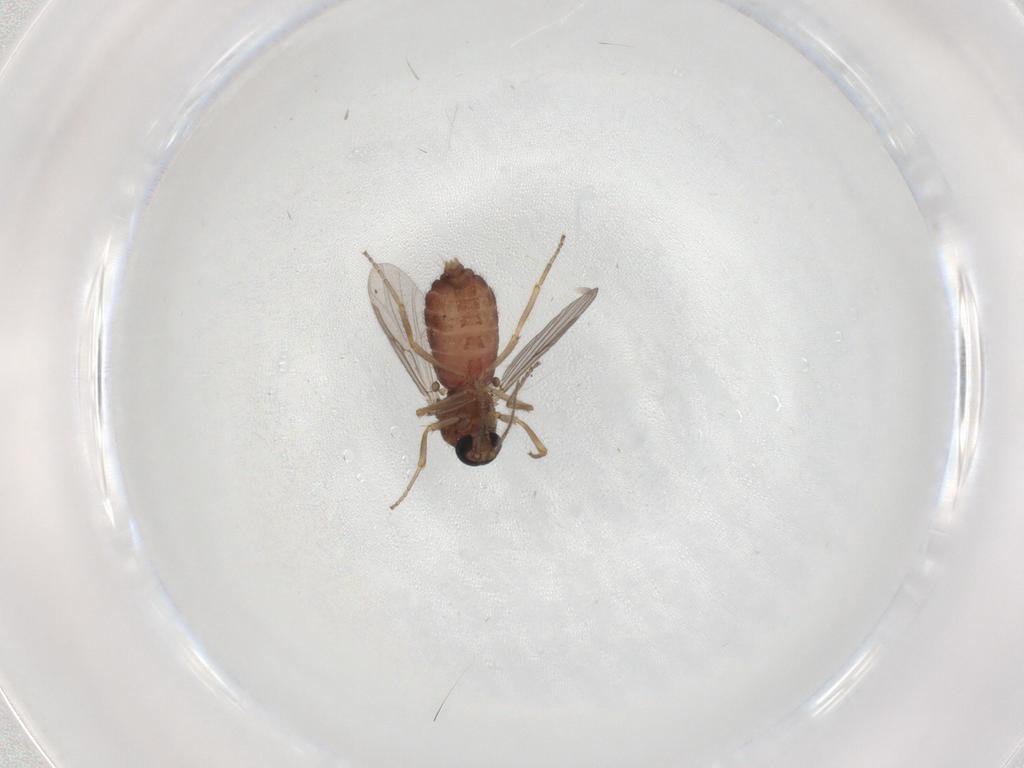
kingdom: Animalia
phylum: Arthropoda
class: Insecta
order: Diptera
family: Ceratopogonidae
